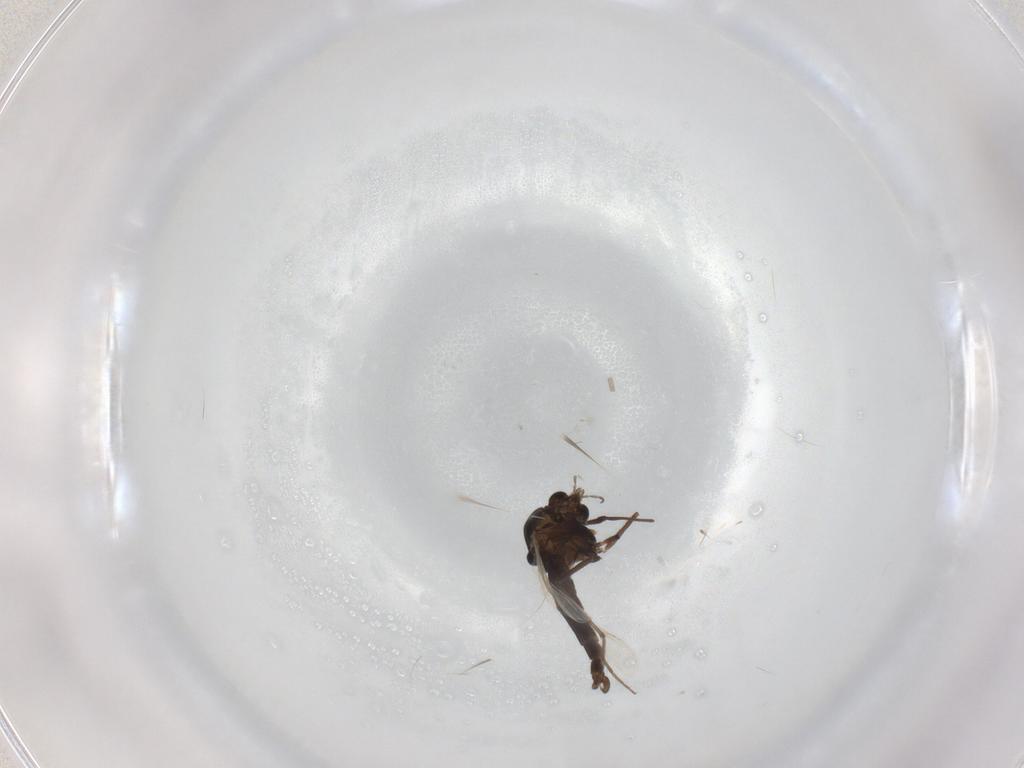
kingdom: Animalia
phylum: Arthropoda
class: Insecta
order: Diptera
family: Chironomidae
